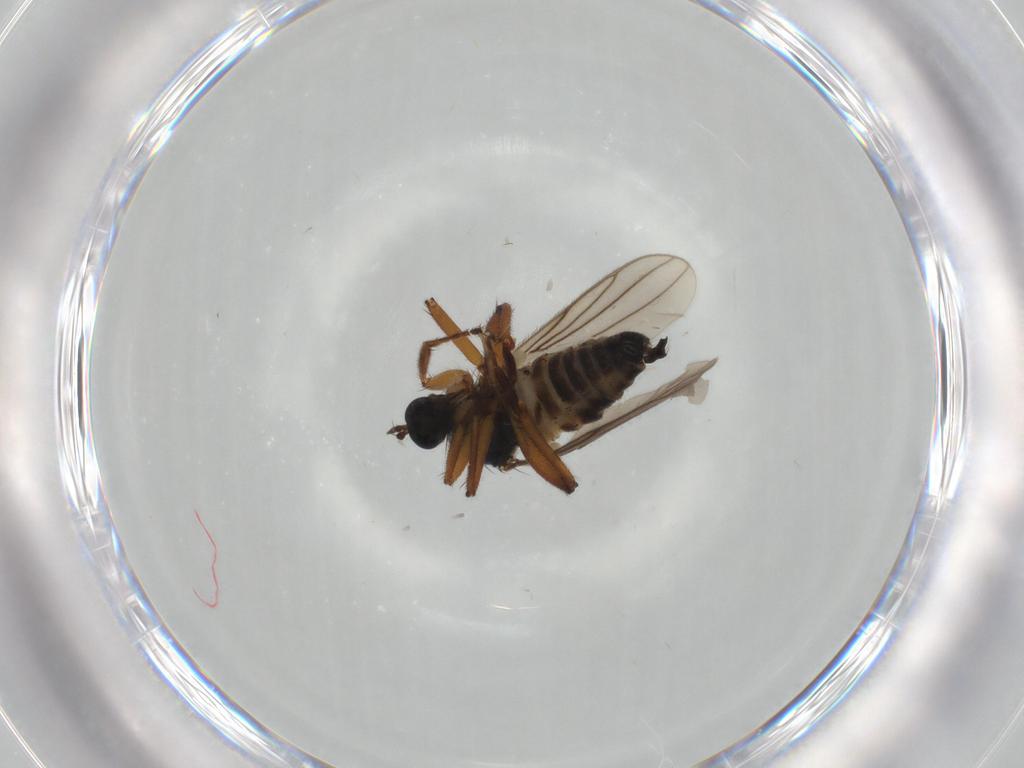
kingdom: Animalia
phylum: Arthropoda
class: Insecta
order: Diptera
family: Hybotidae
